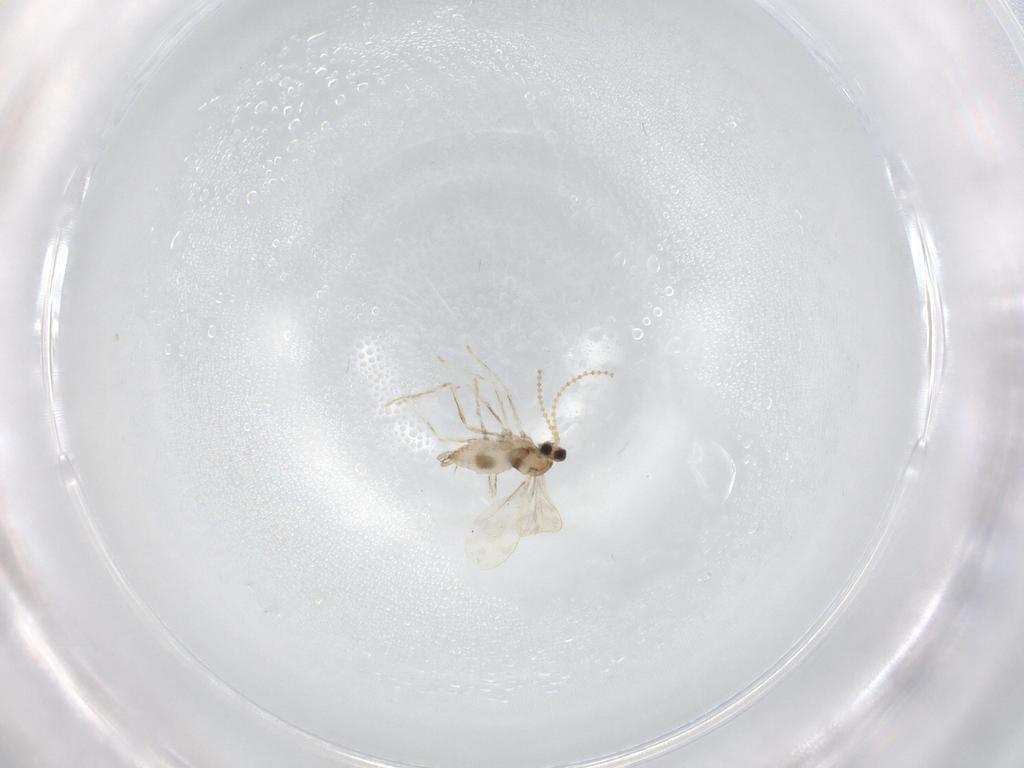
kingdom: Animalia
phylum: Arthropoda
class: Insecta
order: Diptera
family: Cecidomyiidae
